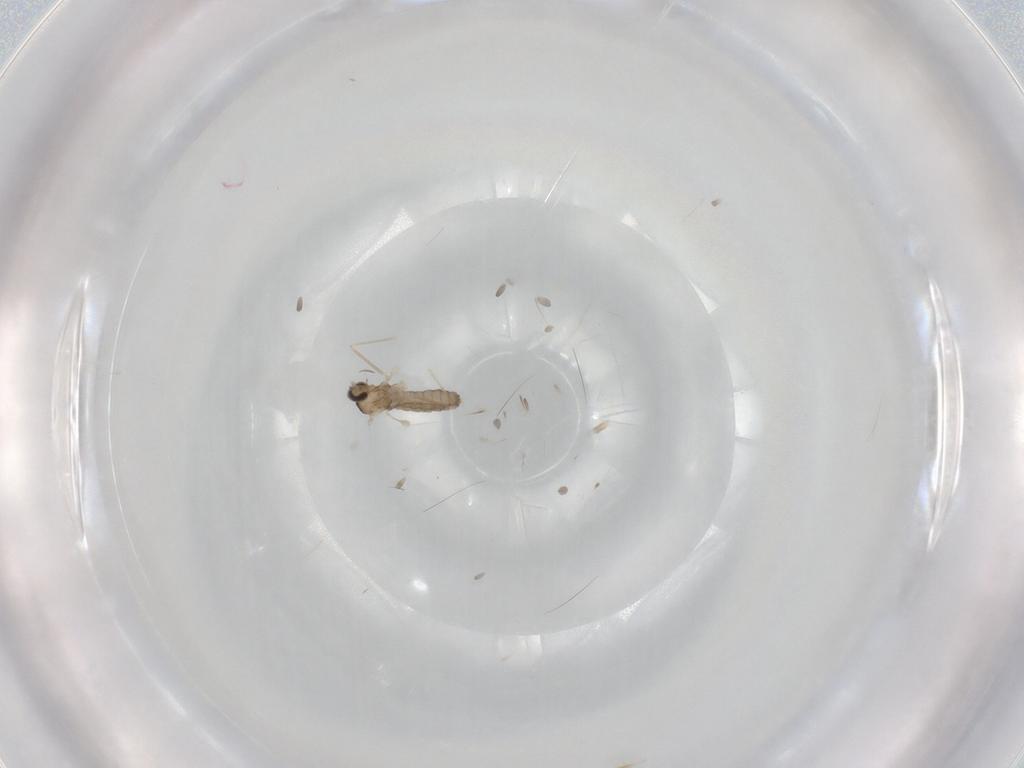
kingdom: Animalia
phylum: Arthropoda
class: Insecta
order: Diptera
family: Cecidomyiidae
